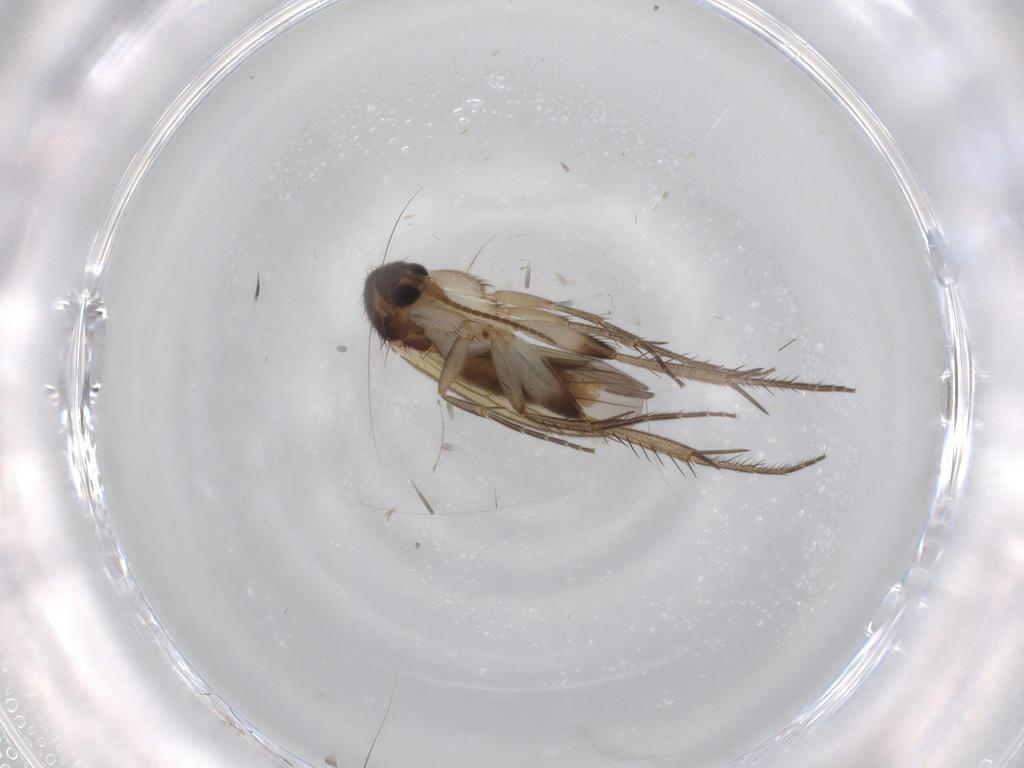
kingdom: Animalia
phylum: Arthropoda
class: Insecta
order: Diptera
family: Mycetophilidae
